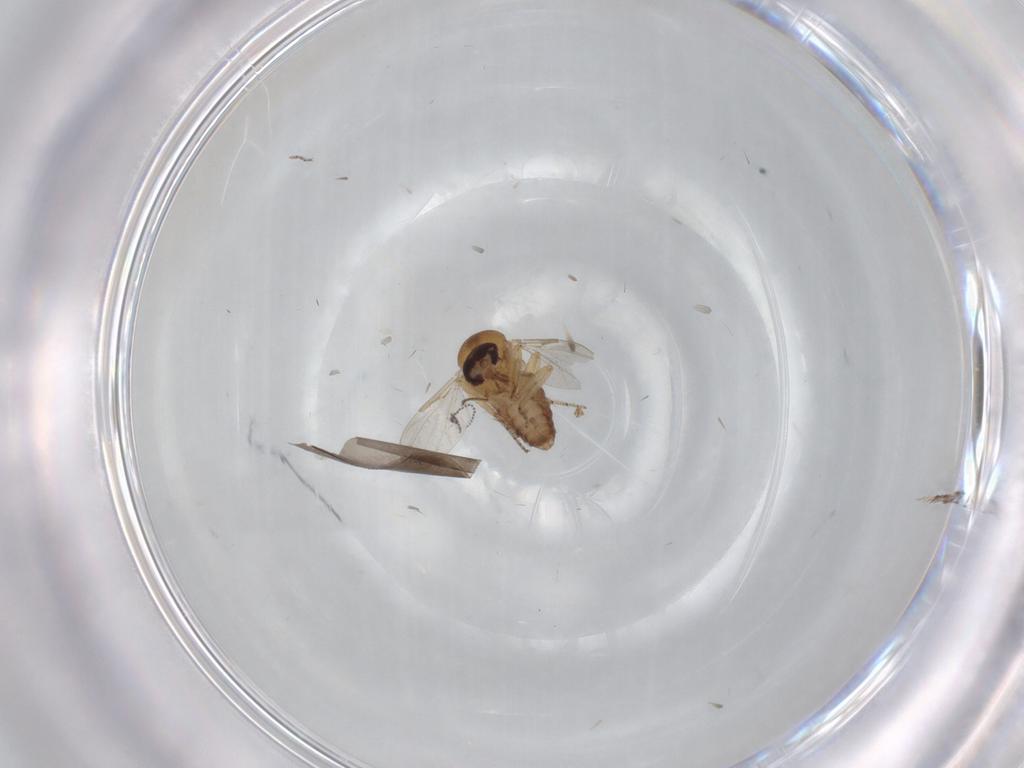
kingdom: Animalia
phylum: Arthropoda
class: Insecta
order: Diptera
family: Ceratopogonidae
